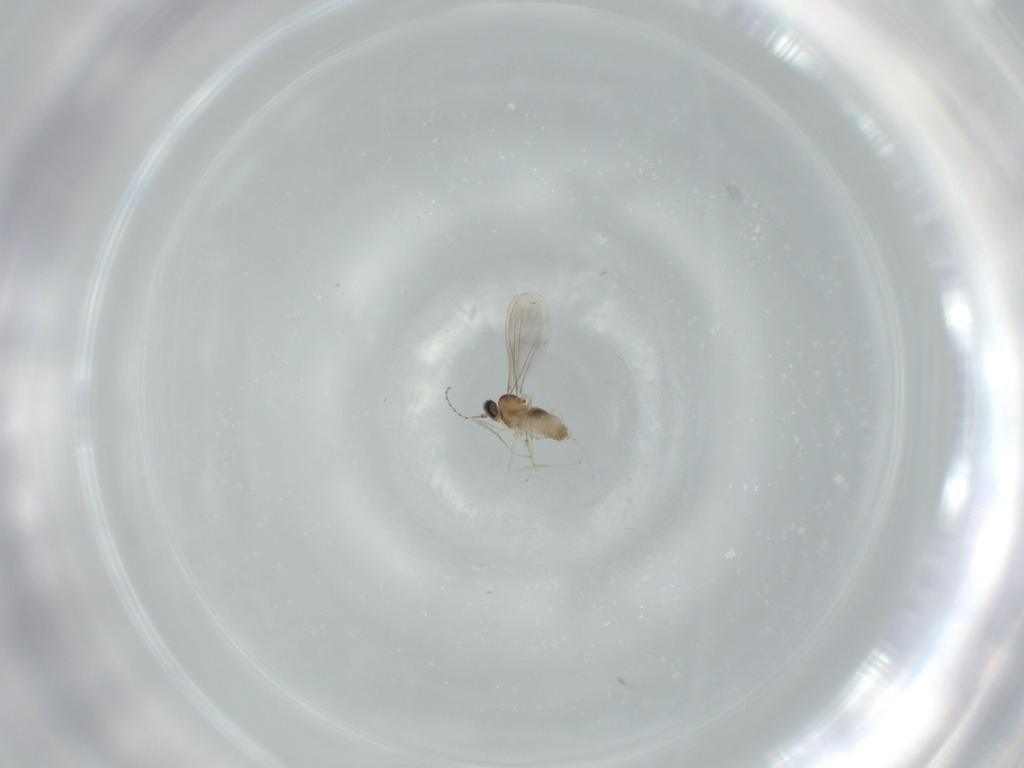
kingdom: Animalia
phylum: Arthropoda
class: Insecta
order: Diptera
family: Cecidomyiidae
